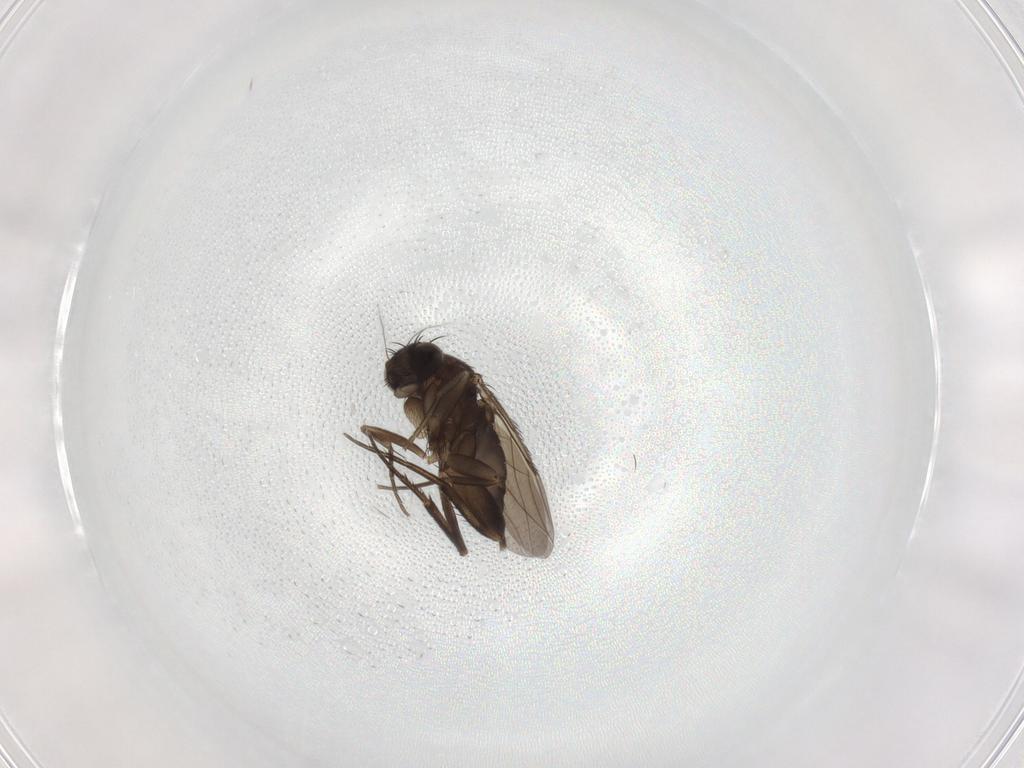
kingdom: Animalia
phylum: Arthropoda
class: Insecta
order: Diptera
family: Phoridae
